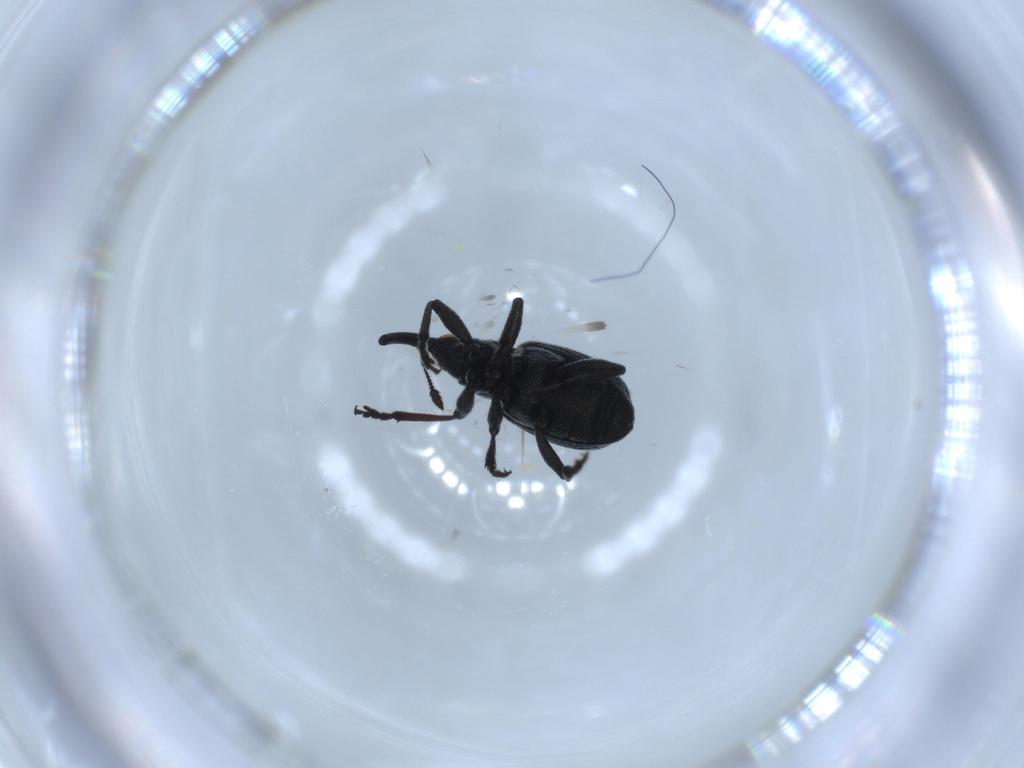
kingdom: Animalia
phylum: Arthropoda
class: Insecta
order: Coleoptera
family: Brentidae
